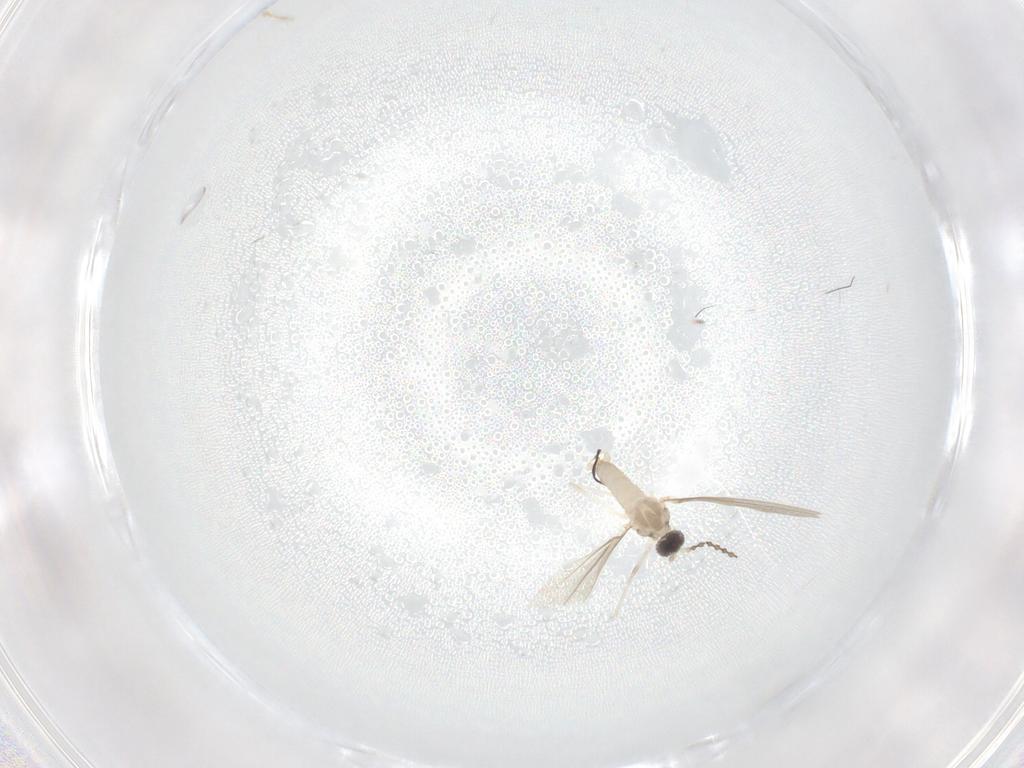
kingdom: Animalia
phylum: Arthropoda
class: Insecta
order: Diptera
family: Cecidomyiidae
